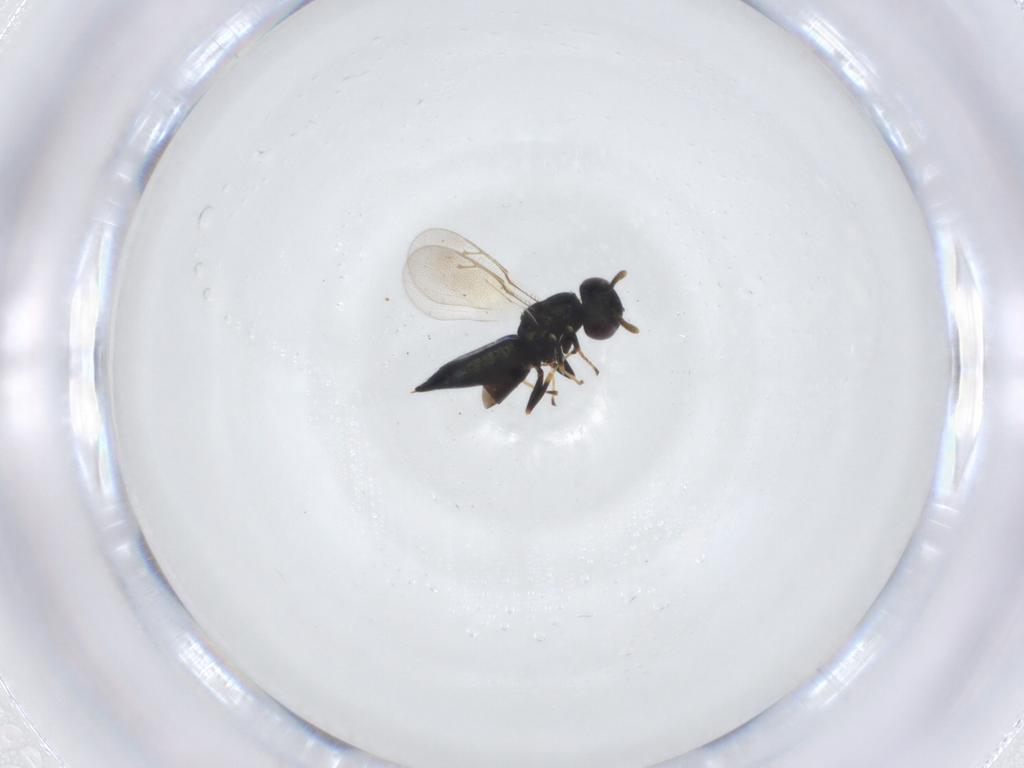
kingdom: Animalia
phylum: Arthropoda
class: Insecta
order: Hymenoptera
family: Pteromalidae
